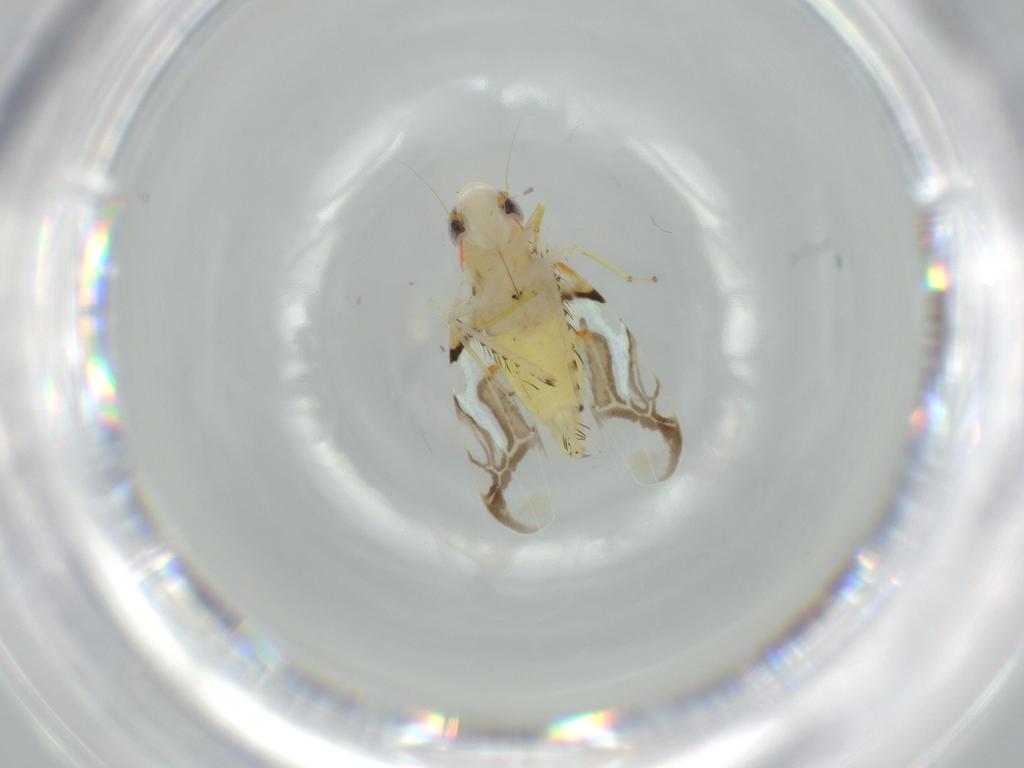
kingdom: Animalia
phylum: Arthropoda
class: Insecta
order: Hemiptera
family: Cicadellidae
